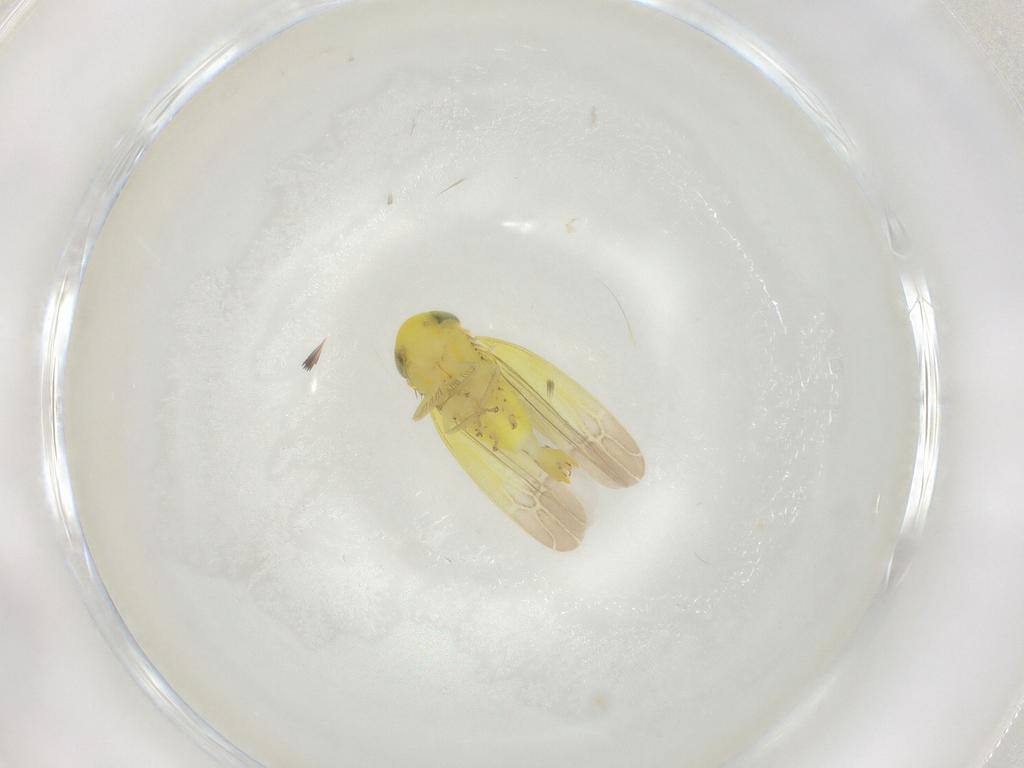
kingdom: Animalia
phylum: Arthropoda
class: Insecta
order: Hemiptera
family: Cicadellidae
